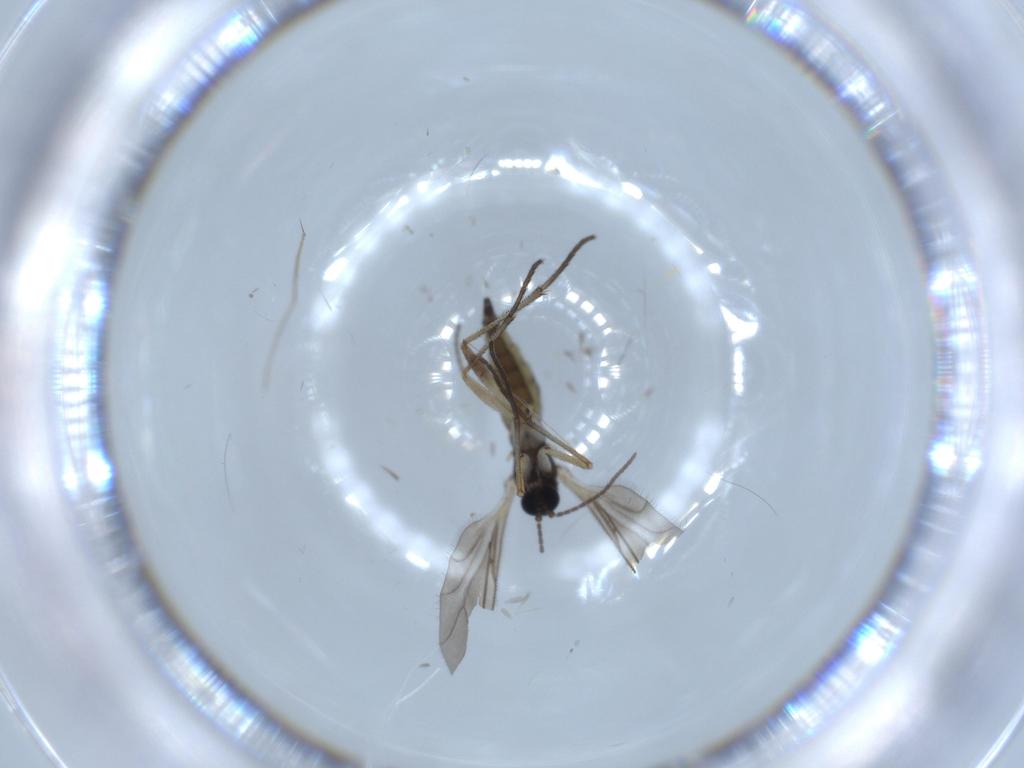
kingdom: Animalia
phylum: Arthropoda
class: Insecta
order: Diptera
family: Sciaridae
